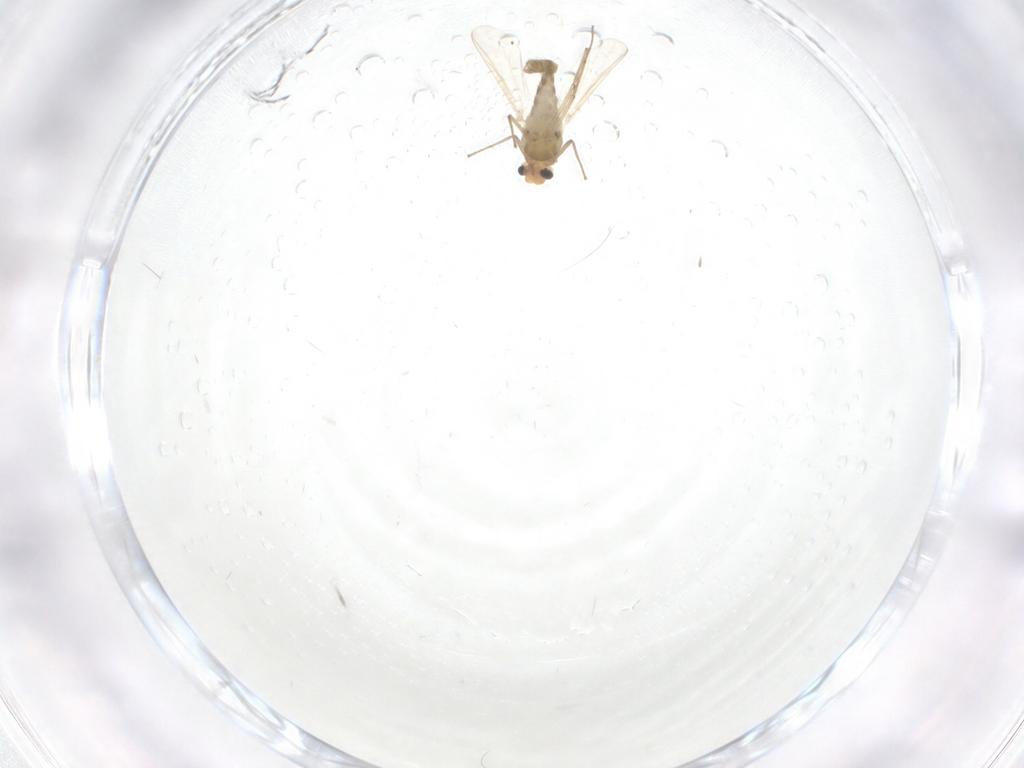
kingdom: Animalia
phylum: Arthropoda
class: Insecta
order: Diptera
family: Chironomidae
